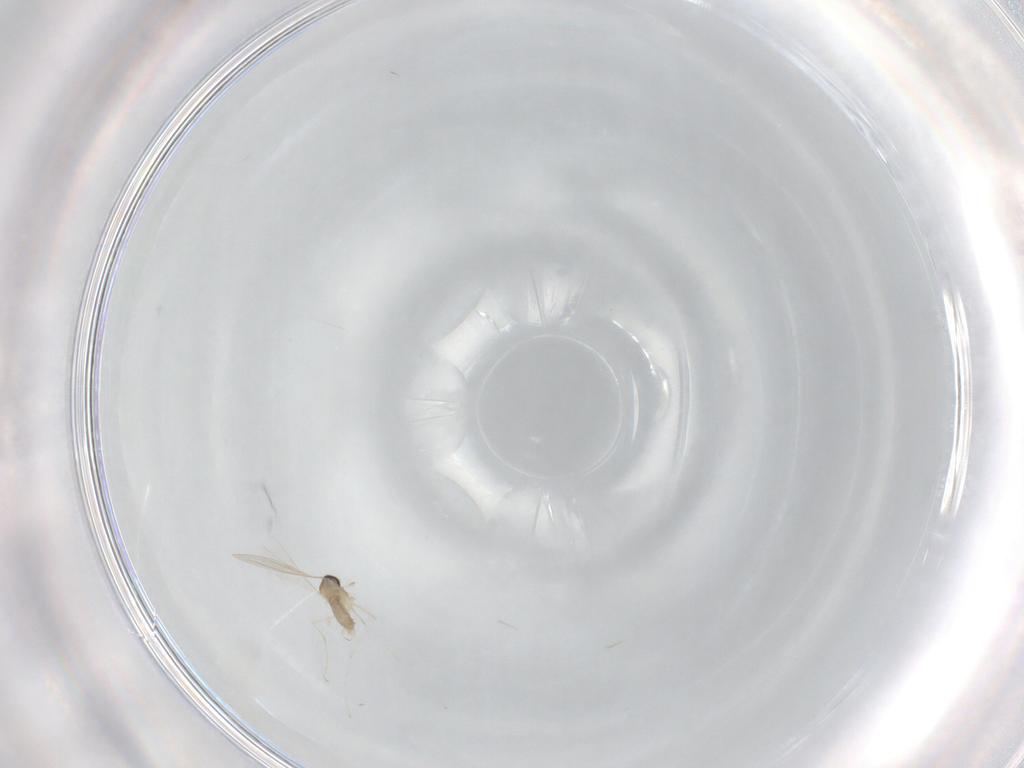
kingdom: Animalia
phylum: Arthropoda
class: Insecta
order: Diptera
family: Cecidomyiidae
